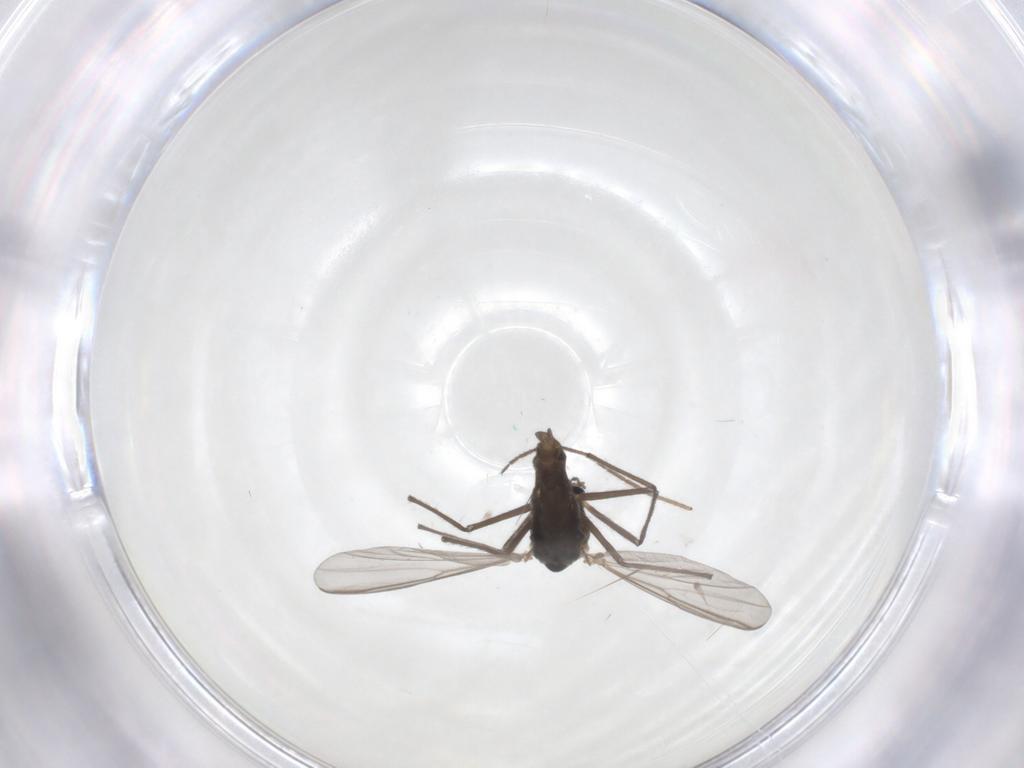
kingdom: Animalia
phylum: Arthropoda
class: Insecta
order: Diptera
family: Chironomidae
